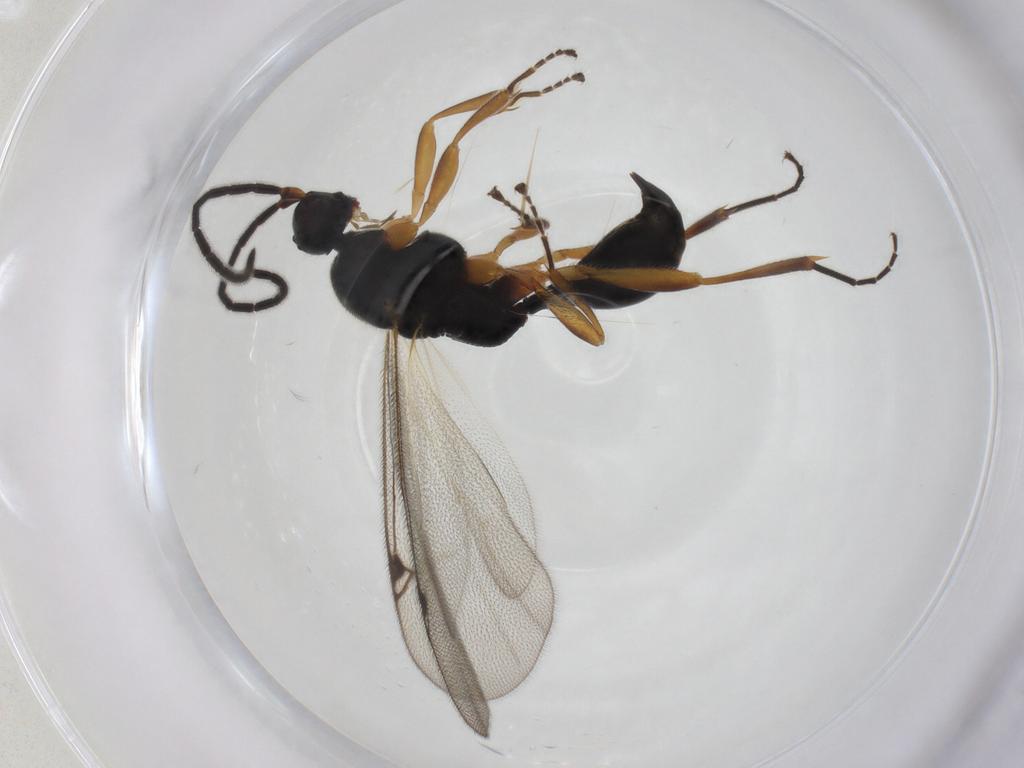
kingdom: Animalia
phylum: Arthropoda
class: Insecta
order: Hymenoptera
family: Proctotrupidae
